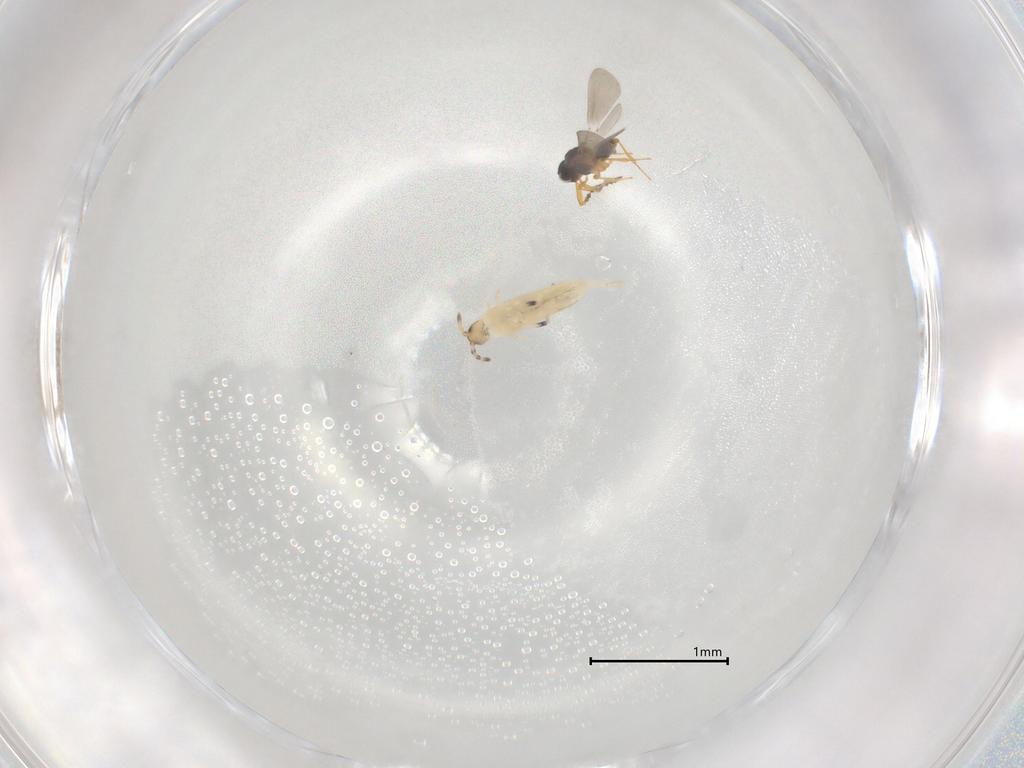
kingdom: Animalia
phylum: Arthropoda
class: Insecta
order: Hymenoptera
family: Platygastridae
